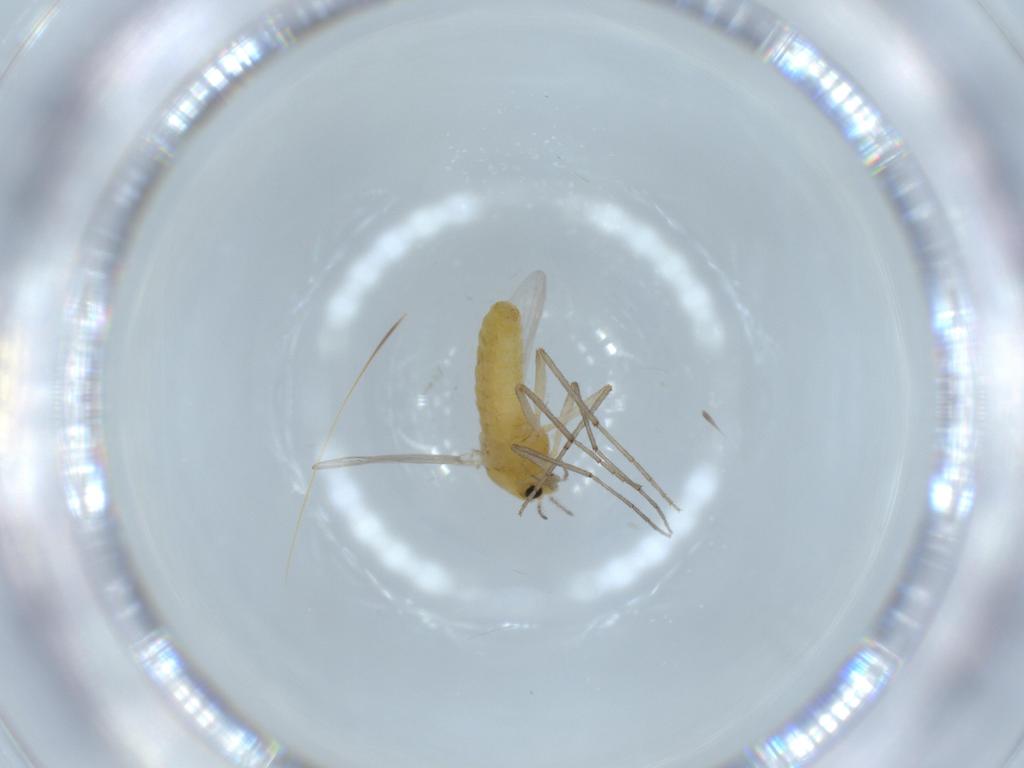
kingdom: Animalia
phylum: Arthropoda
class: Insecta
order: Diptera
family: Chironomidae
